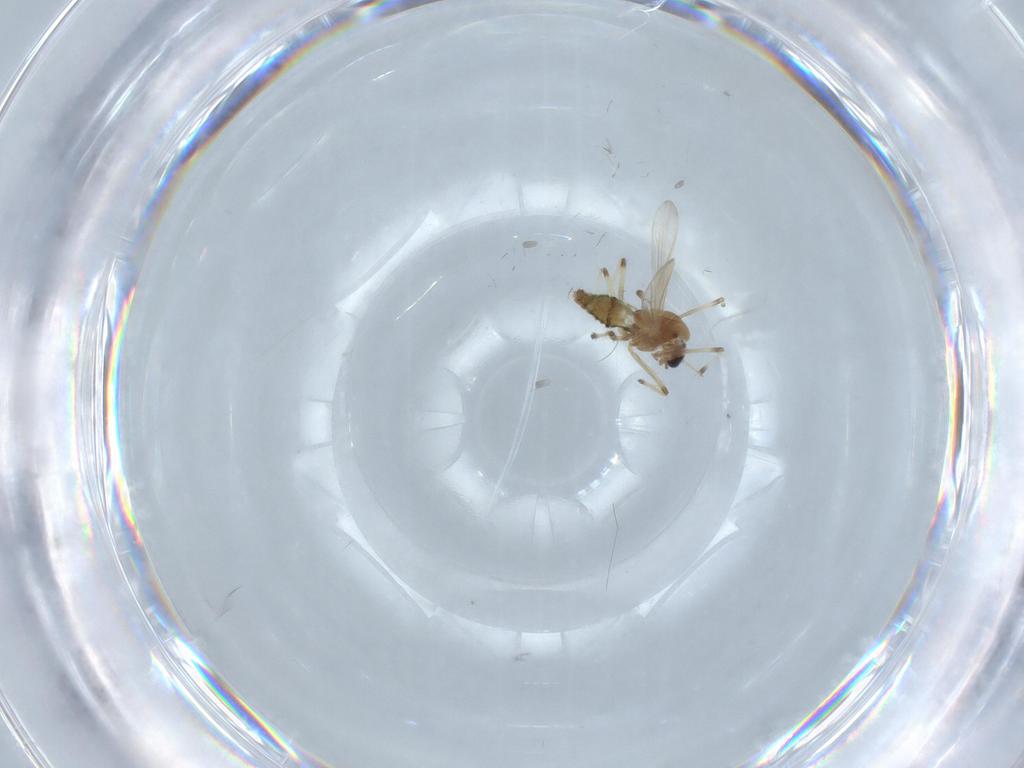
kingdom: Animalia
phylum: Arthropoda
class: Insecta
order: Diptera
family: Chironomidae
